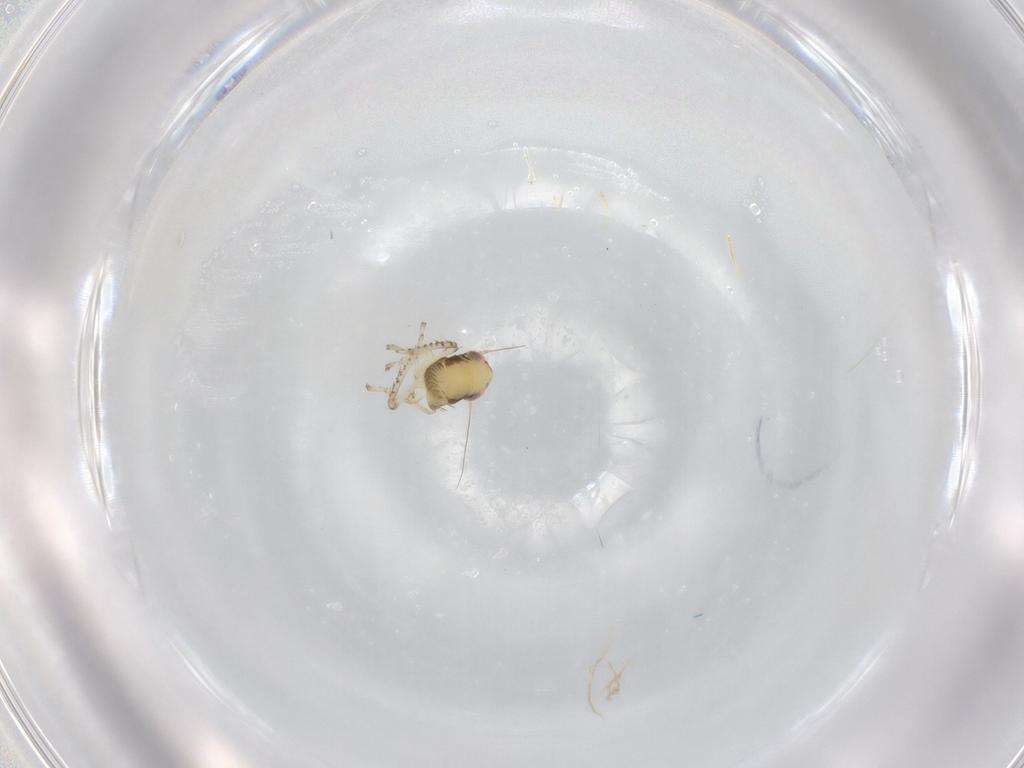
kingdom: Animalia
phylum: Arthropoda
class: Insecta
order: Hemiptera
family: Cicadellidae
